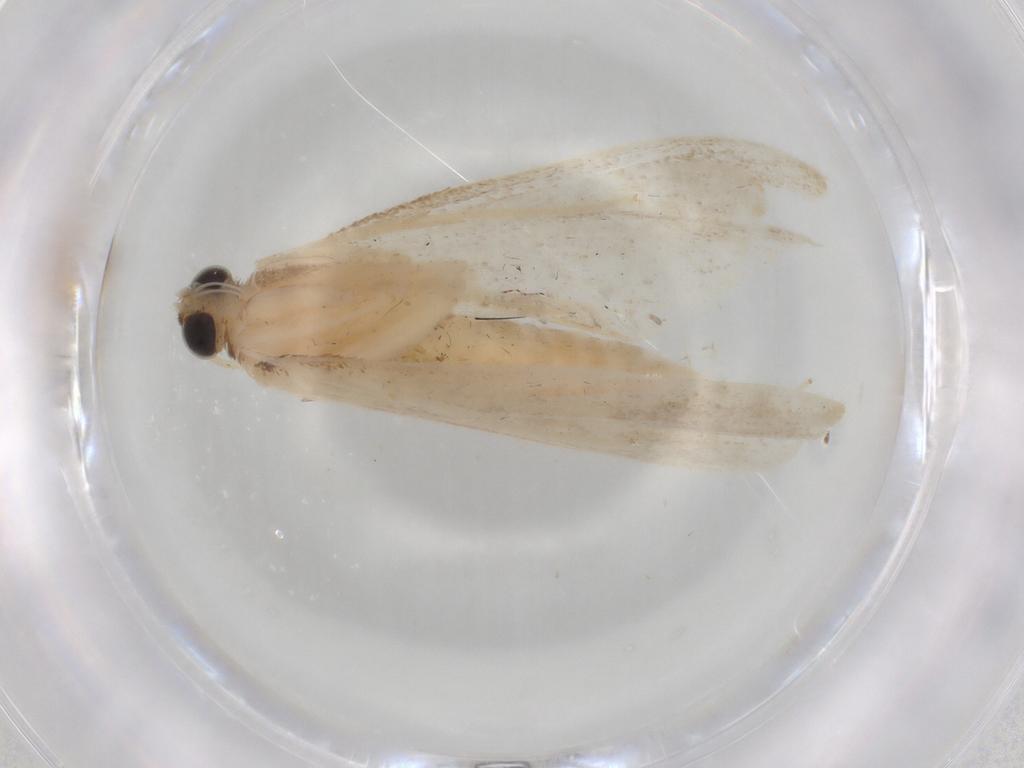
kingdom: Animalia
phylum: Arthropoda
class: Insecta
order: Lepidoptera
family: Crambidae
